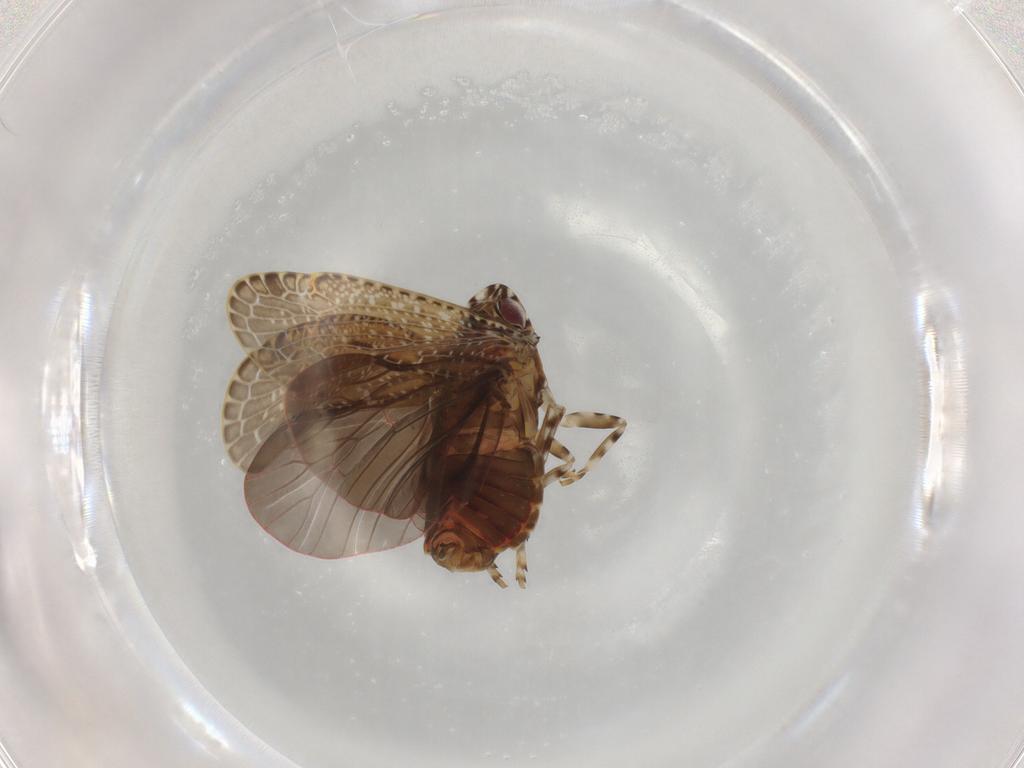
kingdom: Animalia
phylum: Arthropoda
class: Insecta
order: Hemiptera
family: Achilidae
